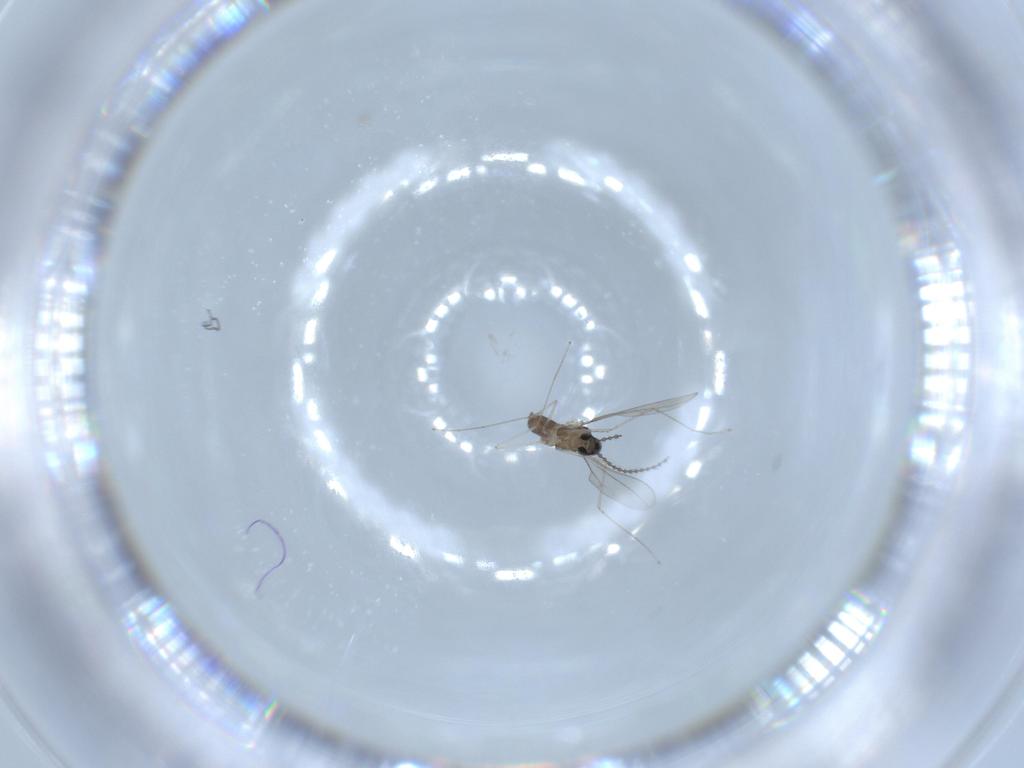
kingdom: Animalia
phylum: Arthropoda
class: Insecta
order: Diptera
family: Cecidomyiidae
